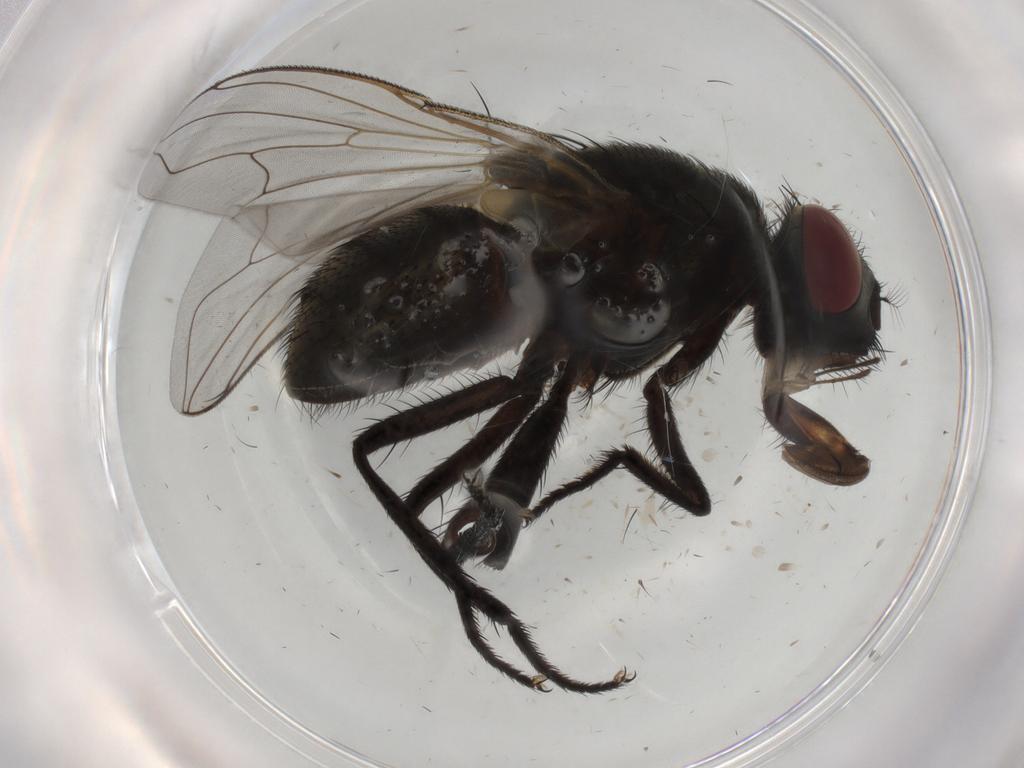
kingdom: Animalia
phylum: Arthropoda
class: Insecta
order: Diptera
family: Muscidae
